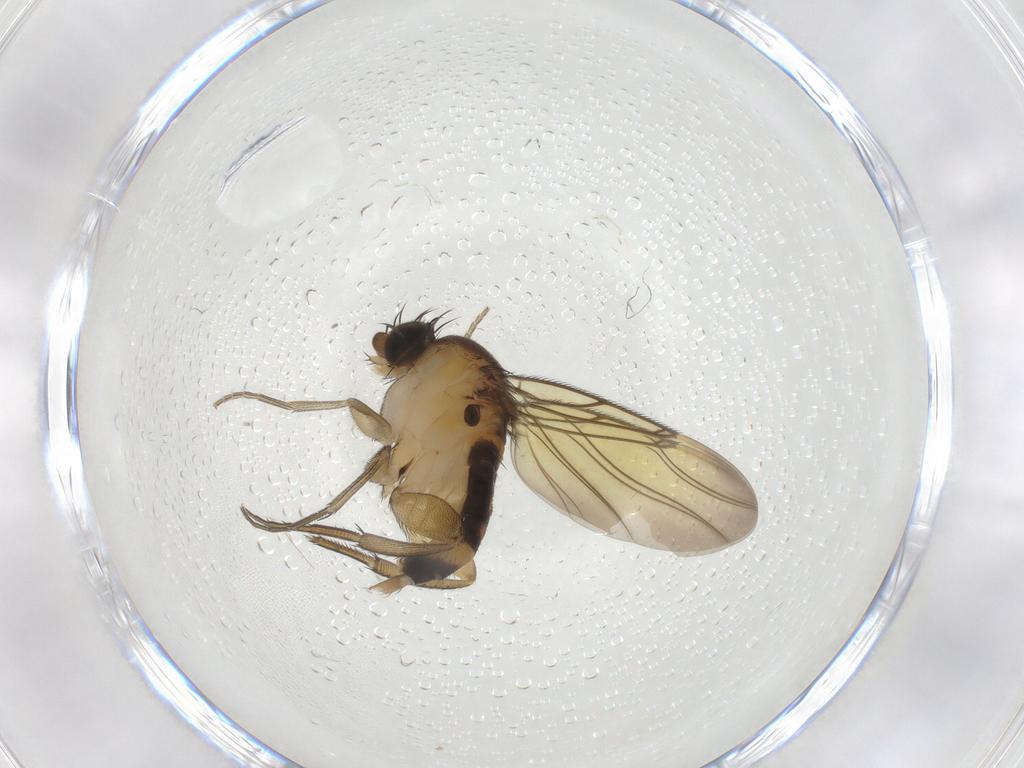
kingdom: Animalia
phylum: Arthropoda
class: Insecta
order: Diptera
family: Phoridae
